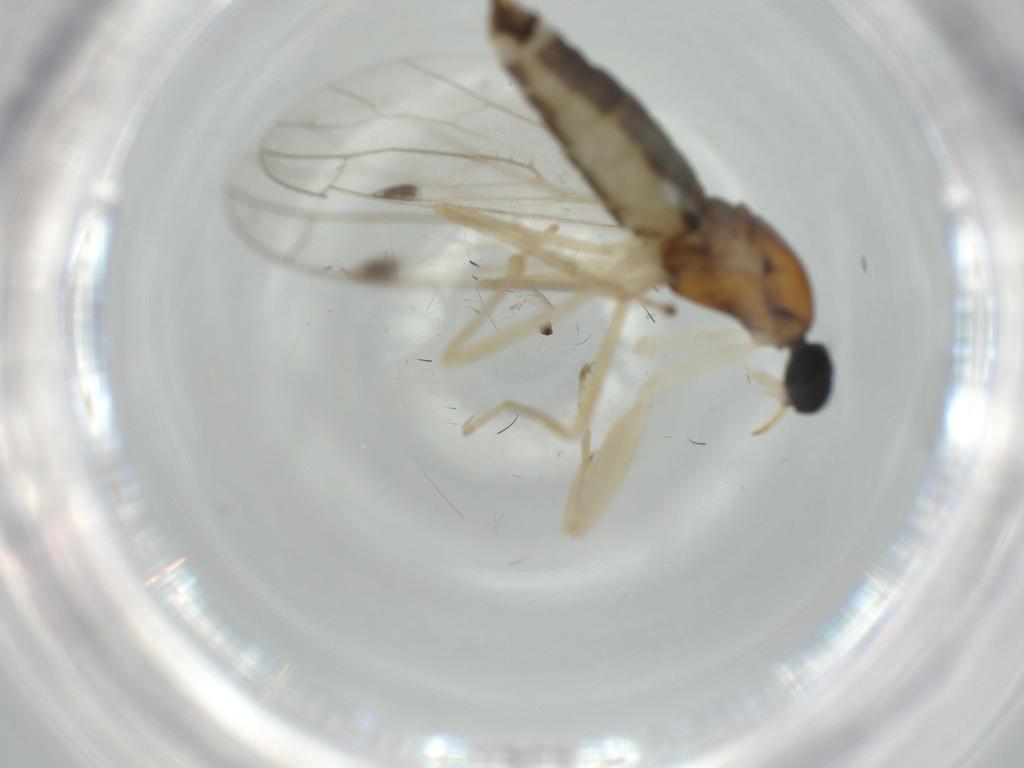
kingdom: Animalia
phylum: Arthropoda
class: Insecta
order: Diptera
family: Empididae
